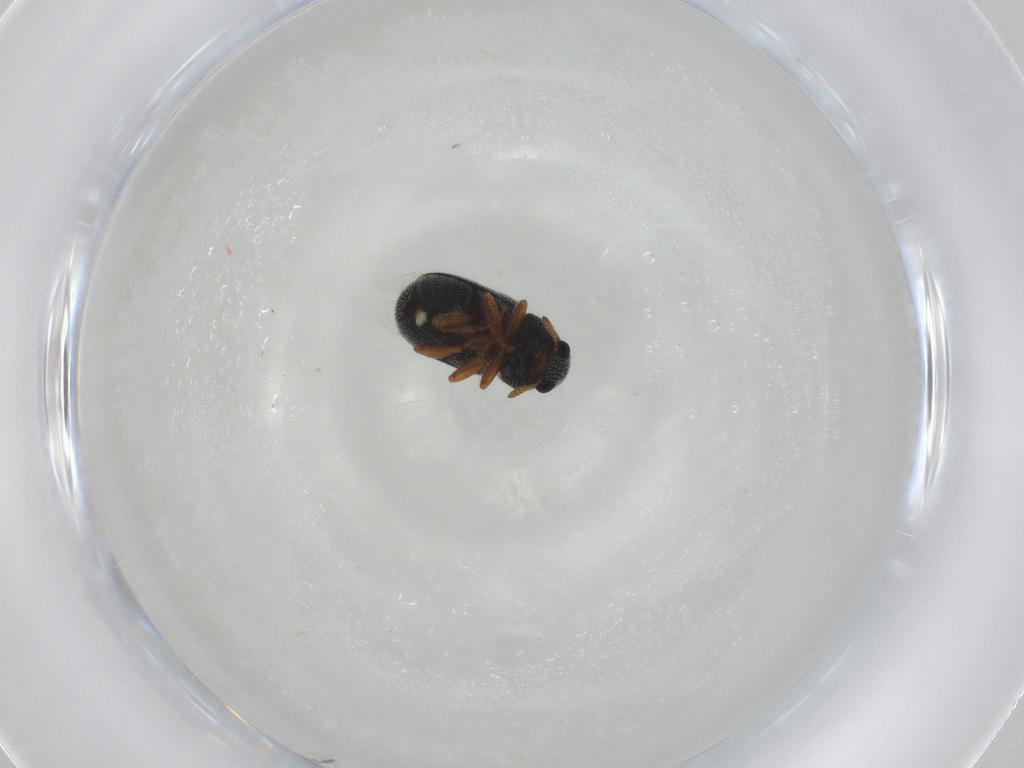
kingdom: Animalia
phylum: Arthropoda
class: Insecta
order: Coleoptera
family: Anthribidae
